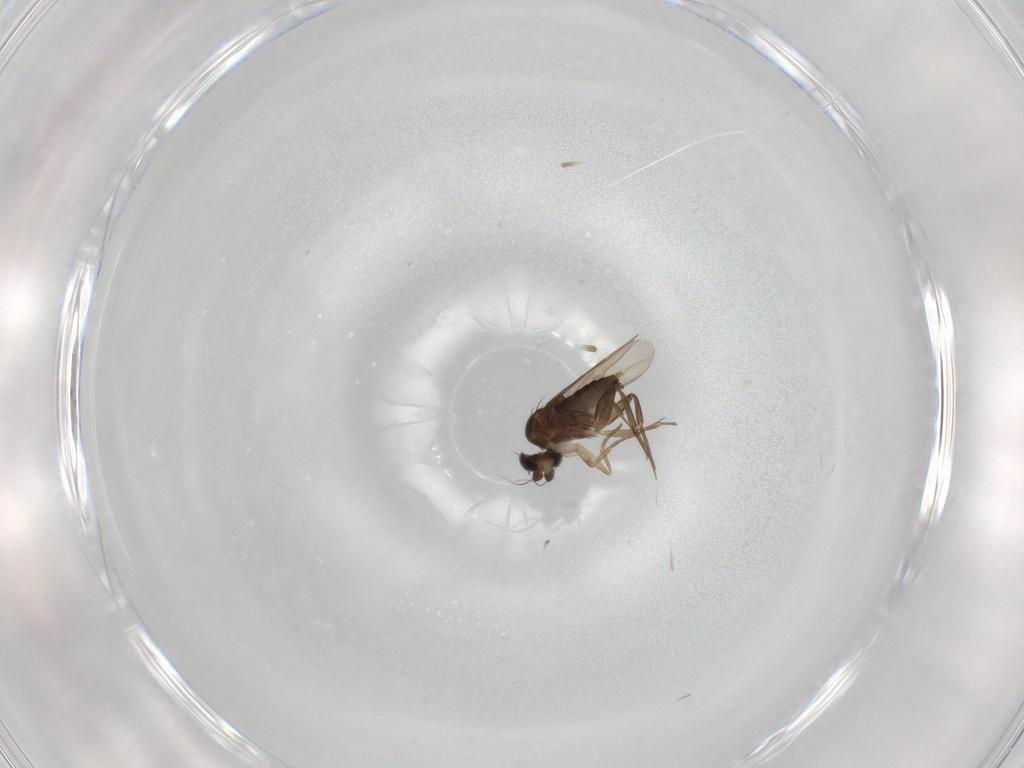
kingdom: Animalia
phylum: Arthropoda
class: Insecta
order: Diptera
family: Phoridae
